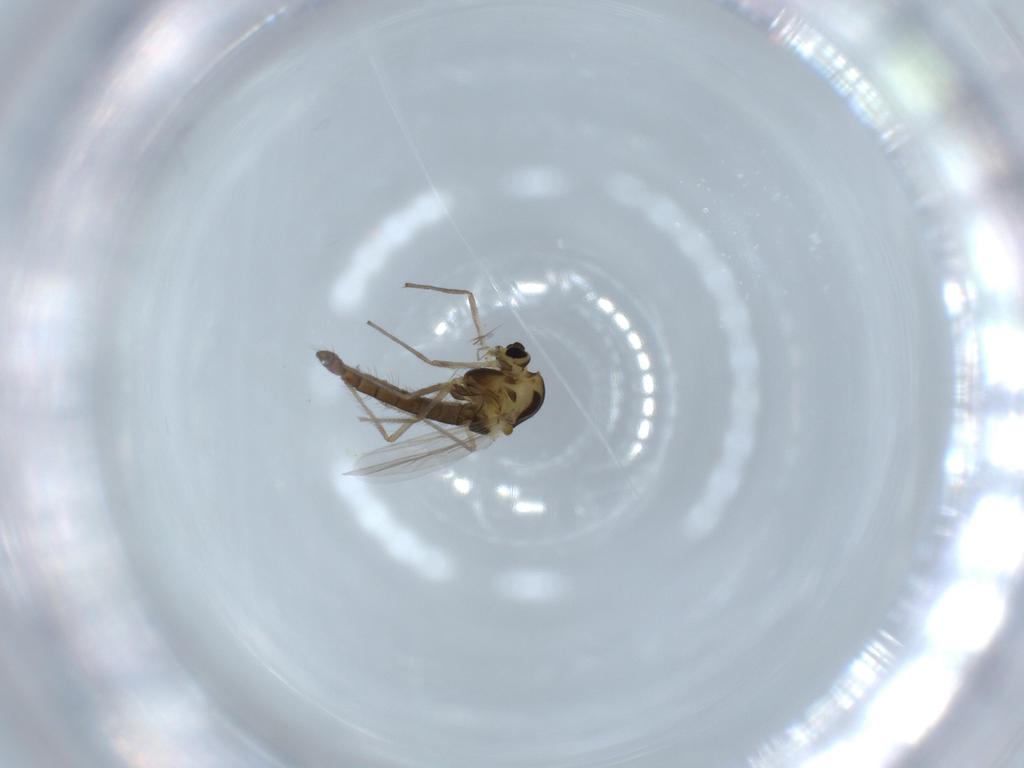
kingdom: Animalia
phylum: Arthropoda
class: Insecta
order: Diptera
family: Chironomidae
